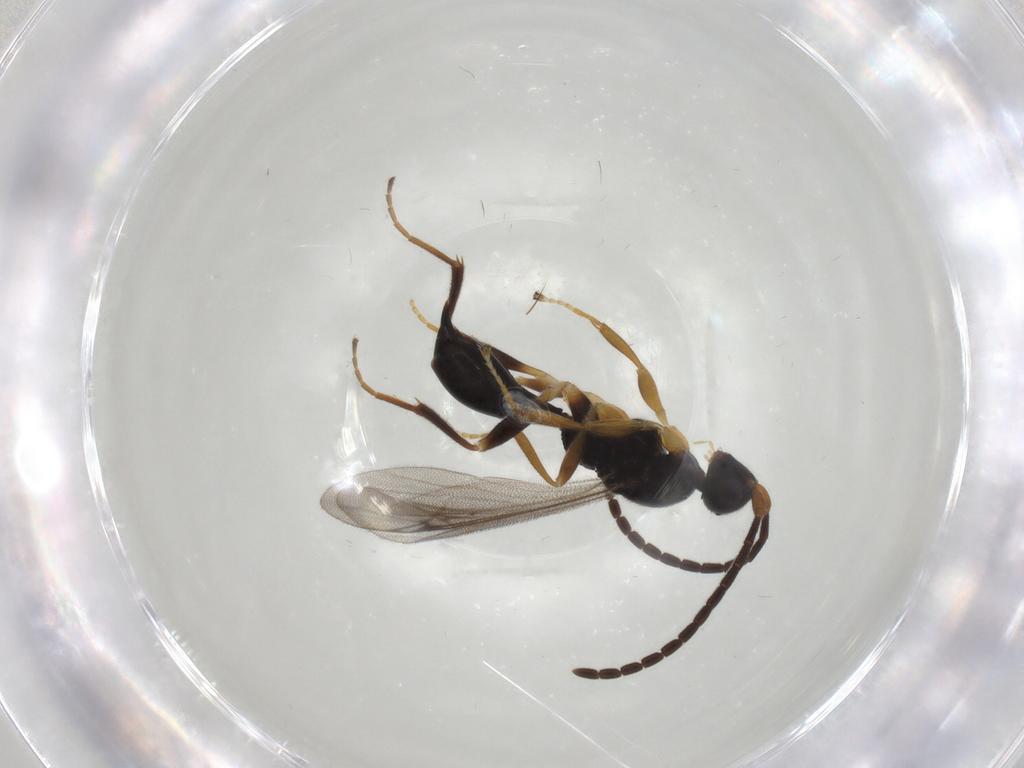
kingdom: Animalia
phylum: Arthropoda
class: Insecta
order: Hymenoptera
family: Proctotrupidae
